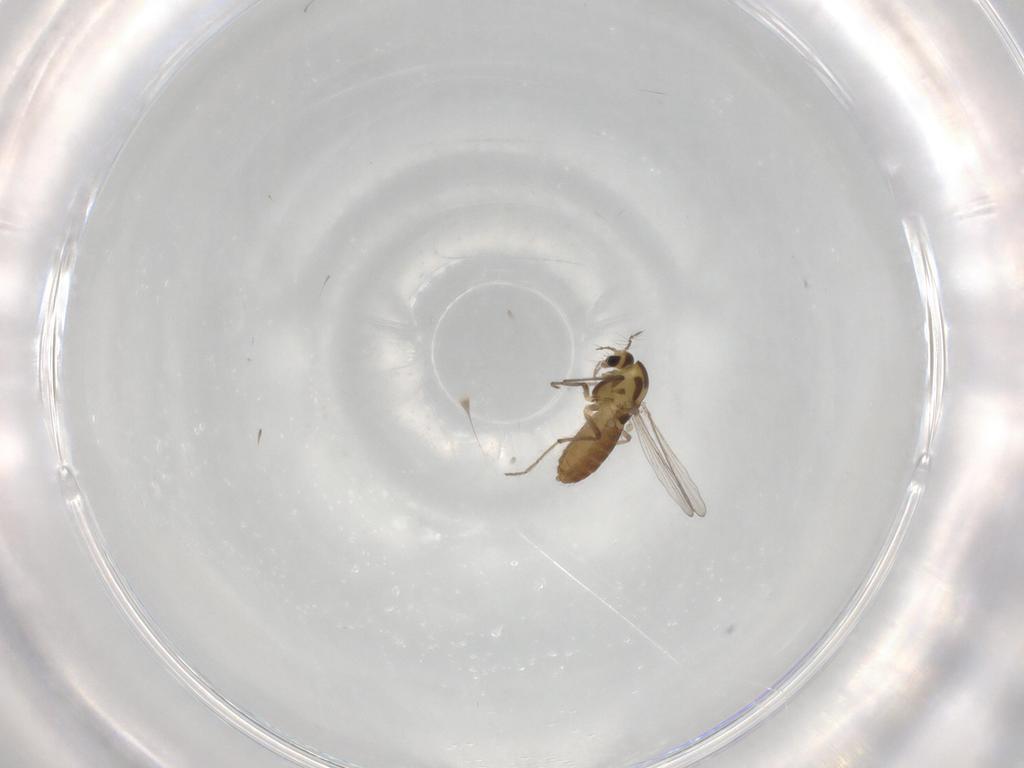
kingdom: Animalia
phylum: Arthropoda
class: Insecta
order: Diptera
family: Chironomidae
